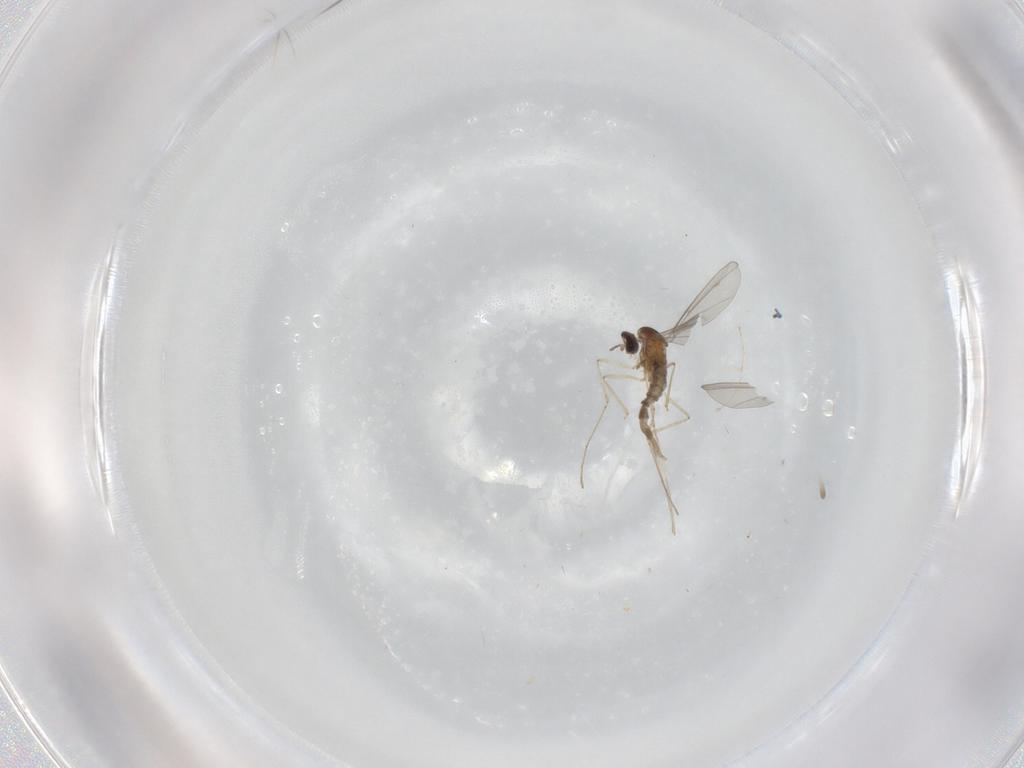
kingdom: Animalia
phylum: Arthropoda
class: Insecta
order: Diptera
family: Cecidomyiidae
